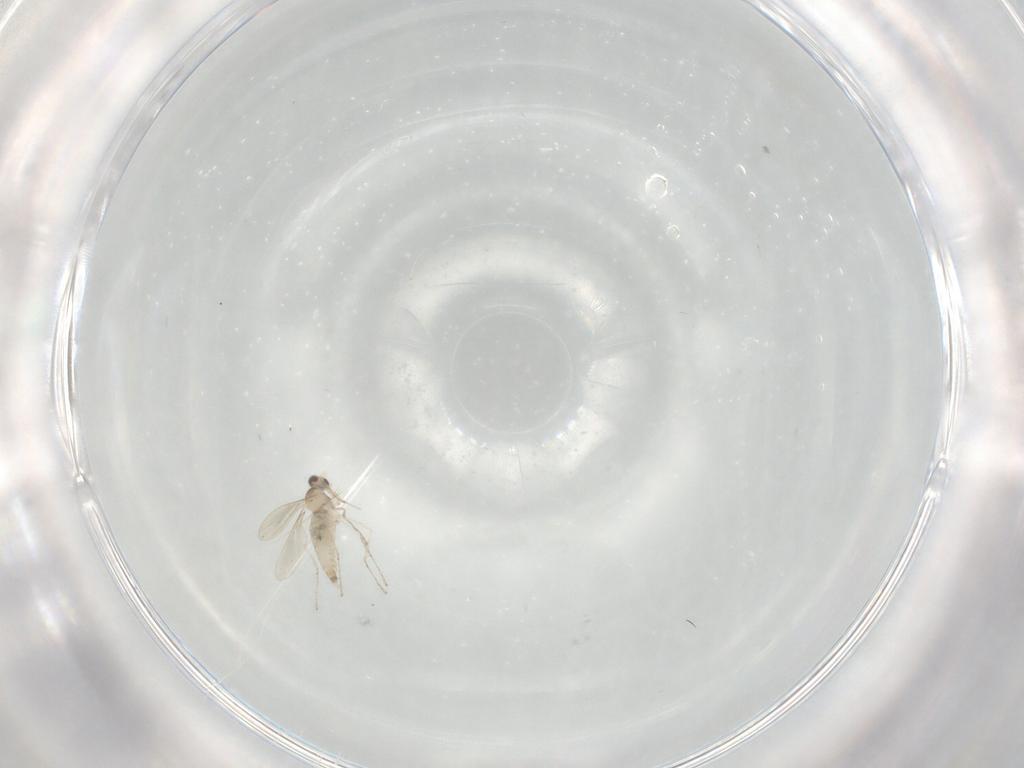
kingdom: Animalia
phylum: Arthropoda
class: Insecta
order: Diptera
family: Cecidomyiidae
